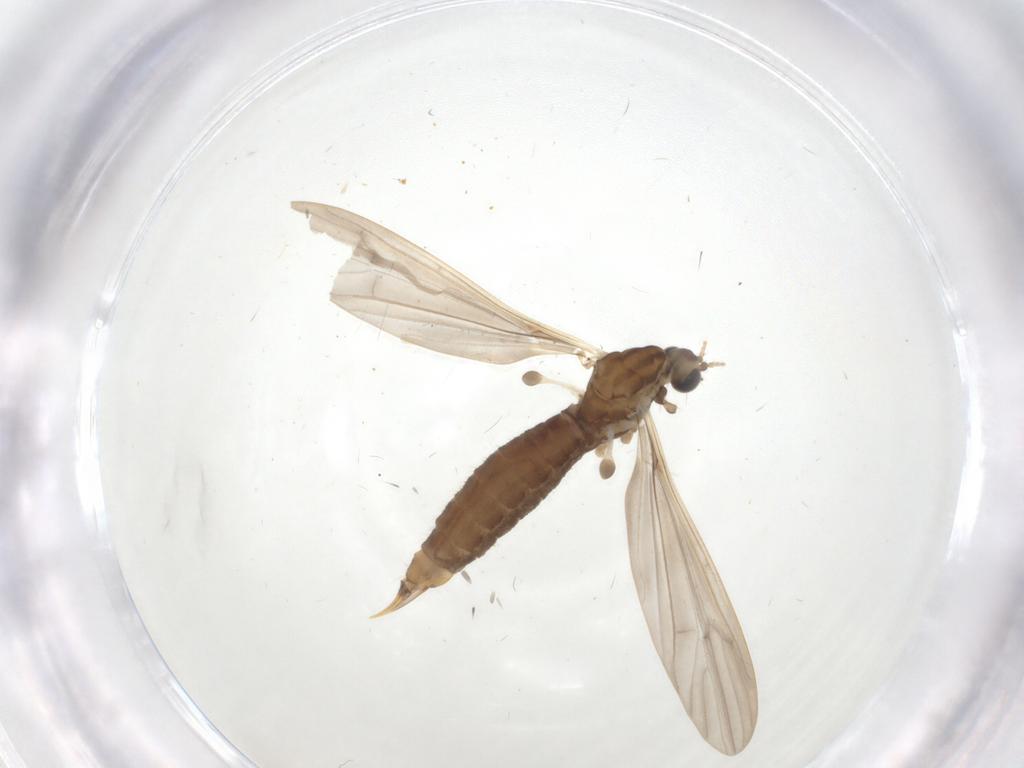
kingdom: Animalia
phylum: Arthropoda
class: Insecta
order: Diptera
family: Limoniidae
